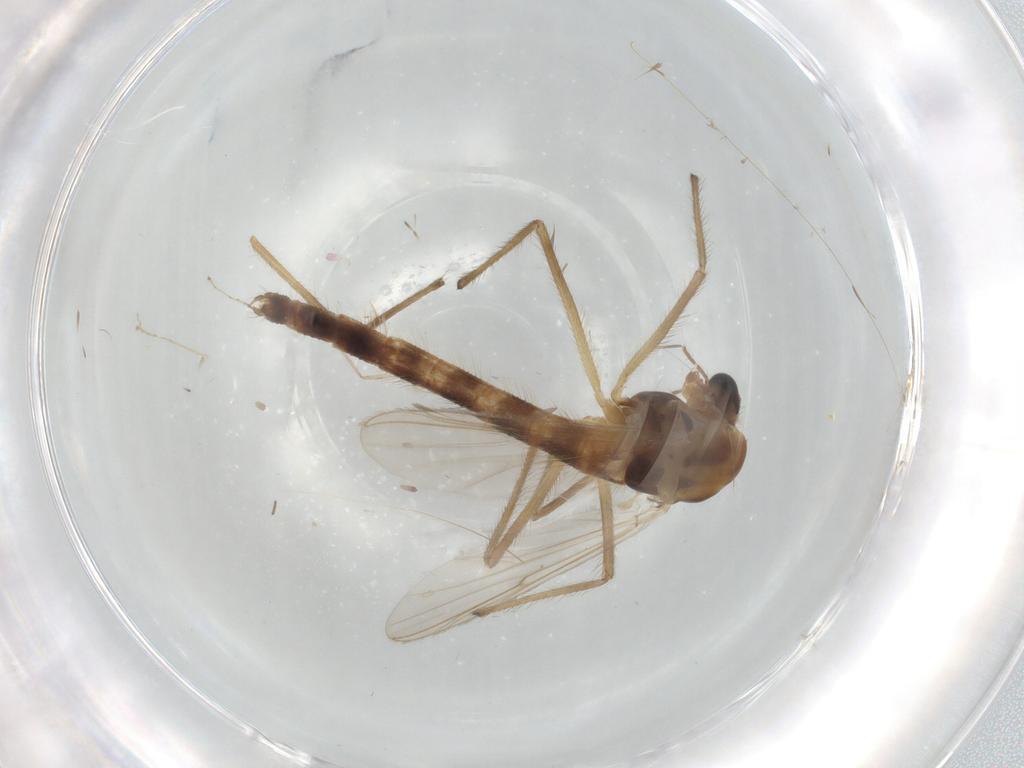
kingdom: Animalia
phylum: Arthropoda
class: Insecta
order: Diptera
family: Chironomidae
